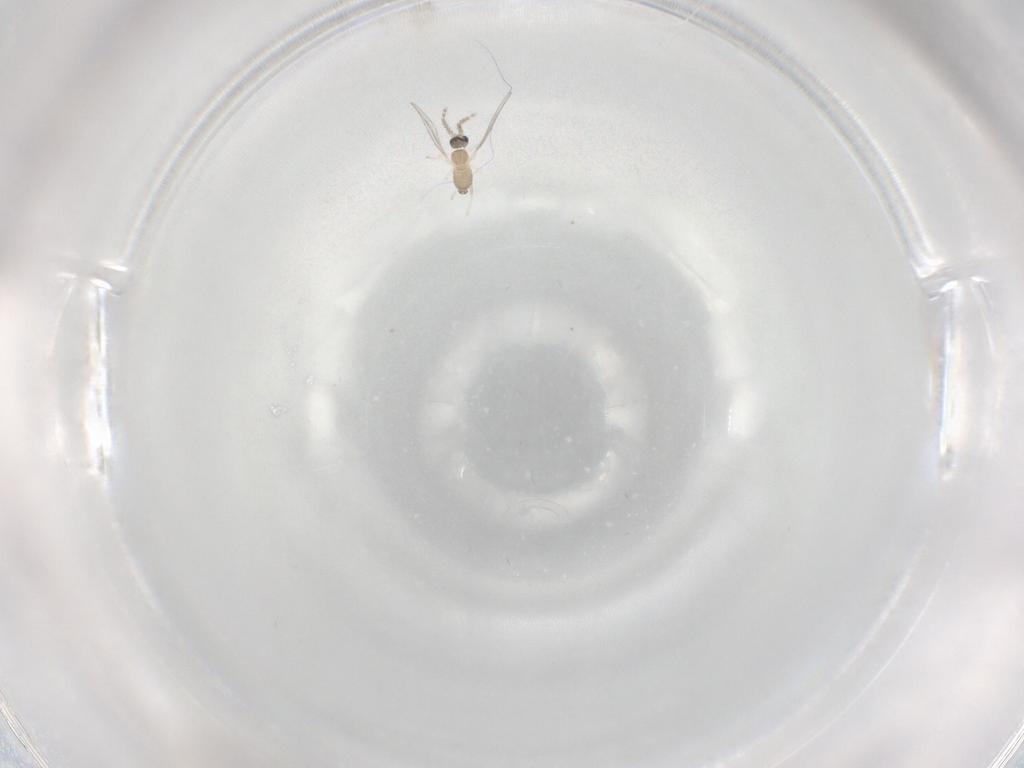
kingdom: Animalia
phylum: Arthropoda
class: Insecta
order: Diptera
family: Cecidomyiidae
